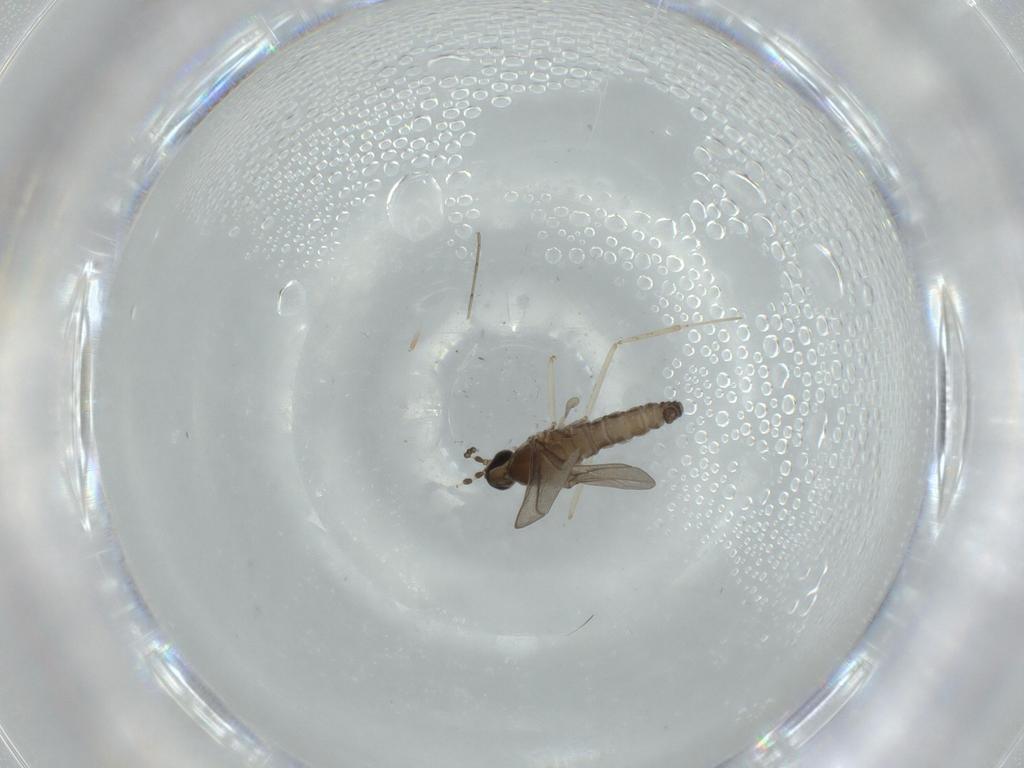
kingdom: Animalia
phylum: Arthropoda
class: Insecta
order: Diptera
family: Cecidomyiidae
